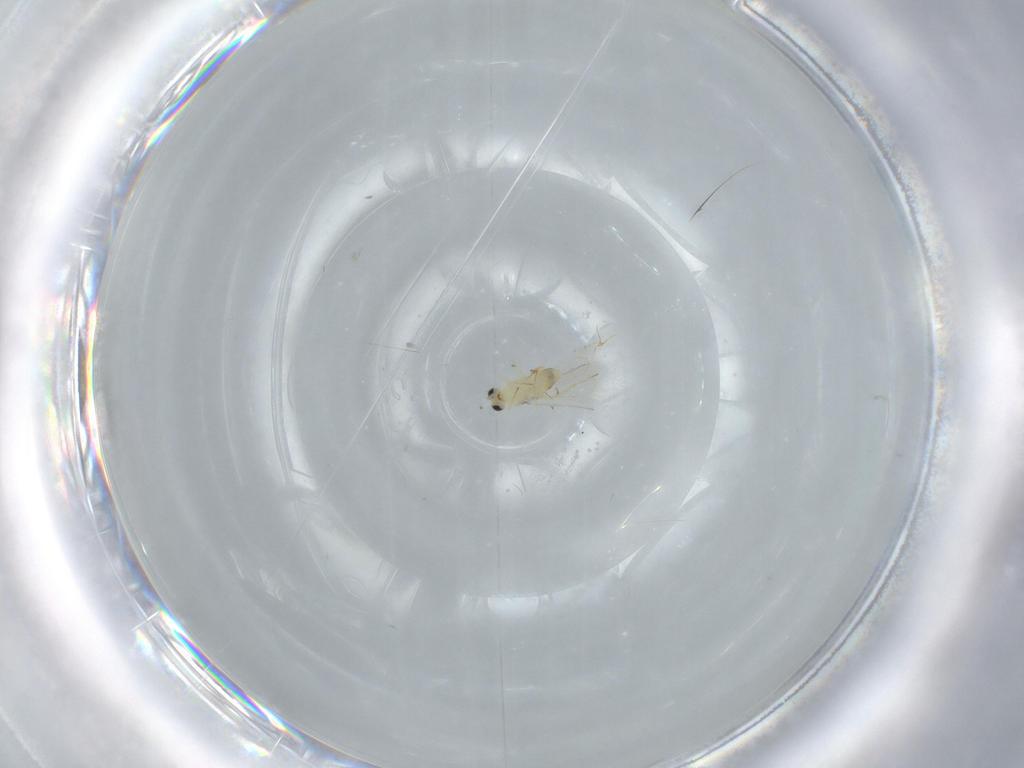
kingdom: Animalia
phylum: Arthropoda
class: Insecta
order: Hymenoptera
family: Trichogrammatidae
